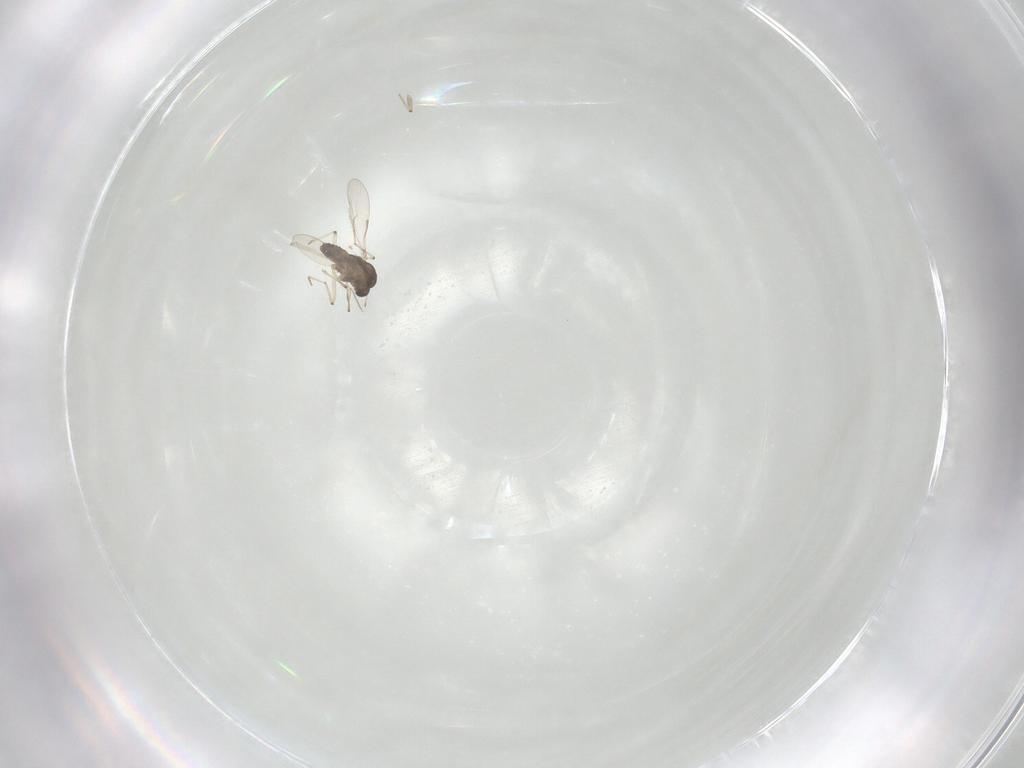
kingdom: Animalia
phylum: Arthropoda
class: Insecta
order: Diptera
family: Chironomidae
